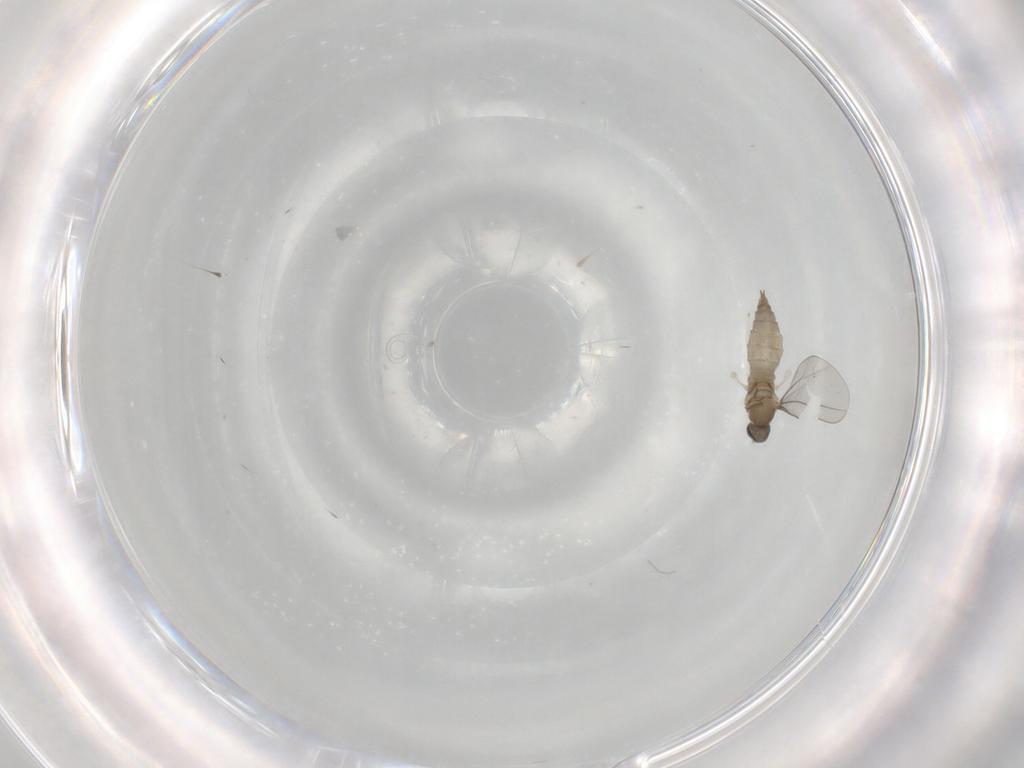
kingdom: Animalia
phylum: Arthropoda
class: Insecta
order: Diptera
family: Cecidomyiidae
